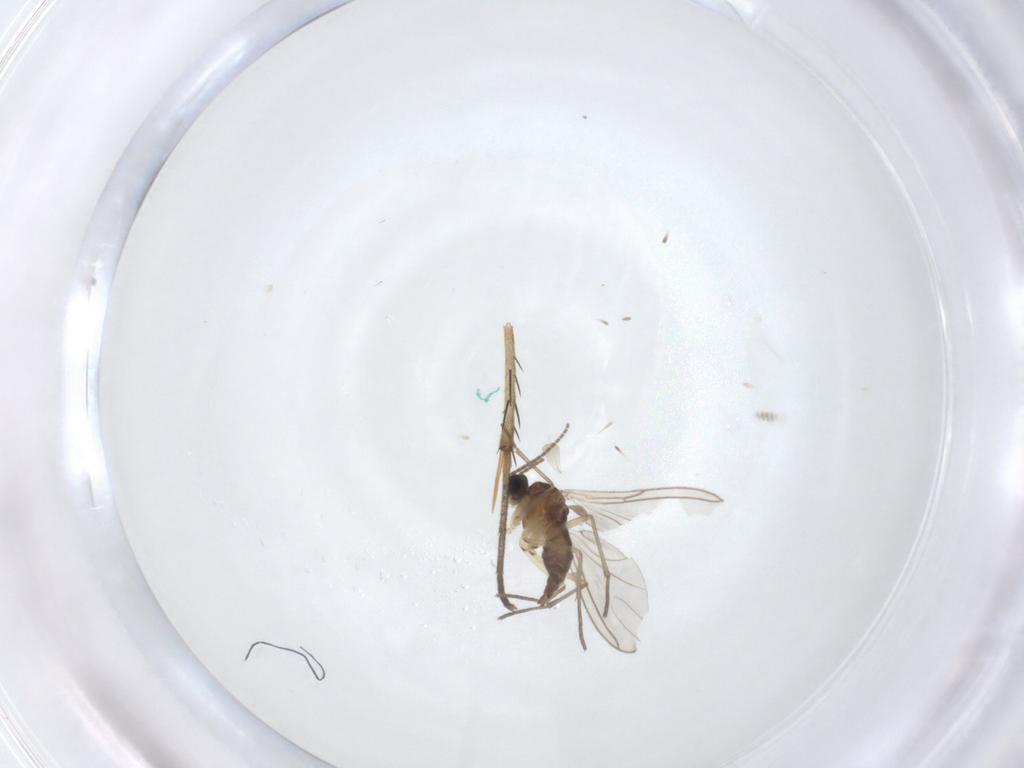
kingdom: Animalia
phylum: Arthropoda
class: Insecta
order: Diptera
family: Sciaridae
